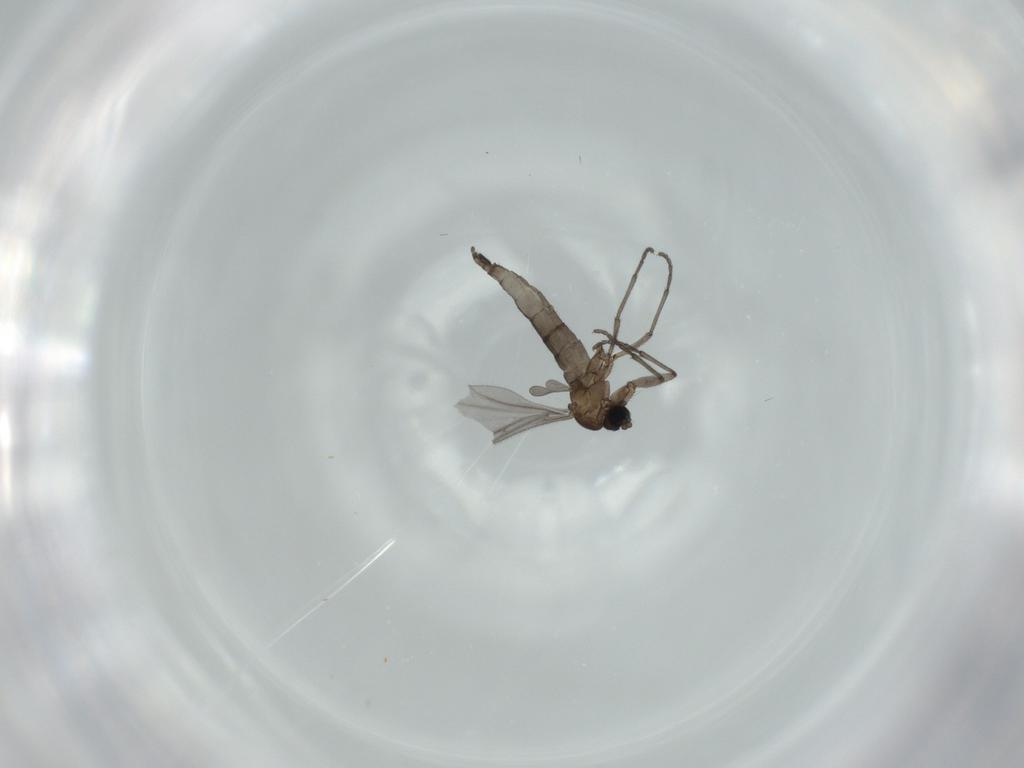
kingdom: Animalia
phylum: Arthropoda
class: Insecta
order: Diptera
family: Sciaridae
